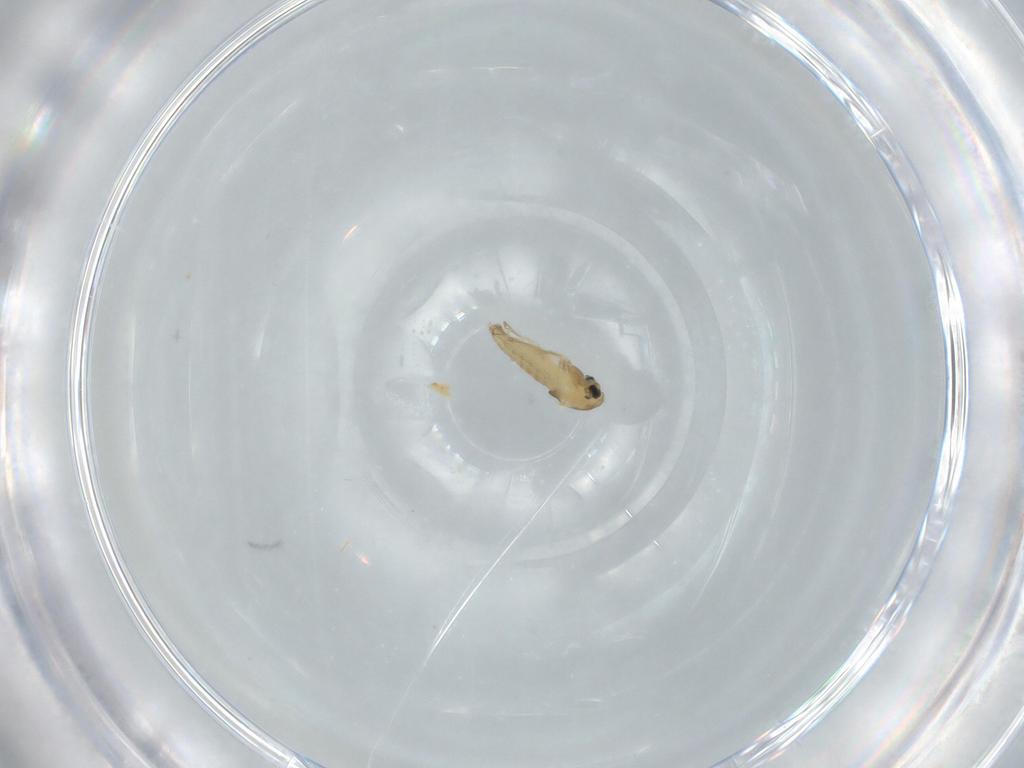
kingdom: Animalia
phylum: Arthropoda
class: Insecta
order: Diptera
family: Chironomidae
